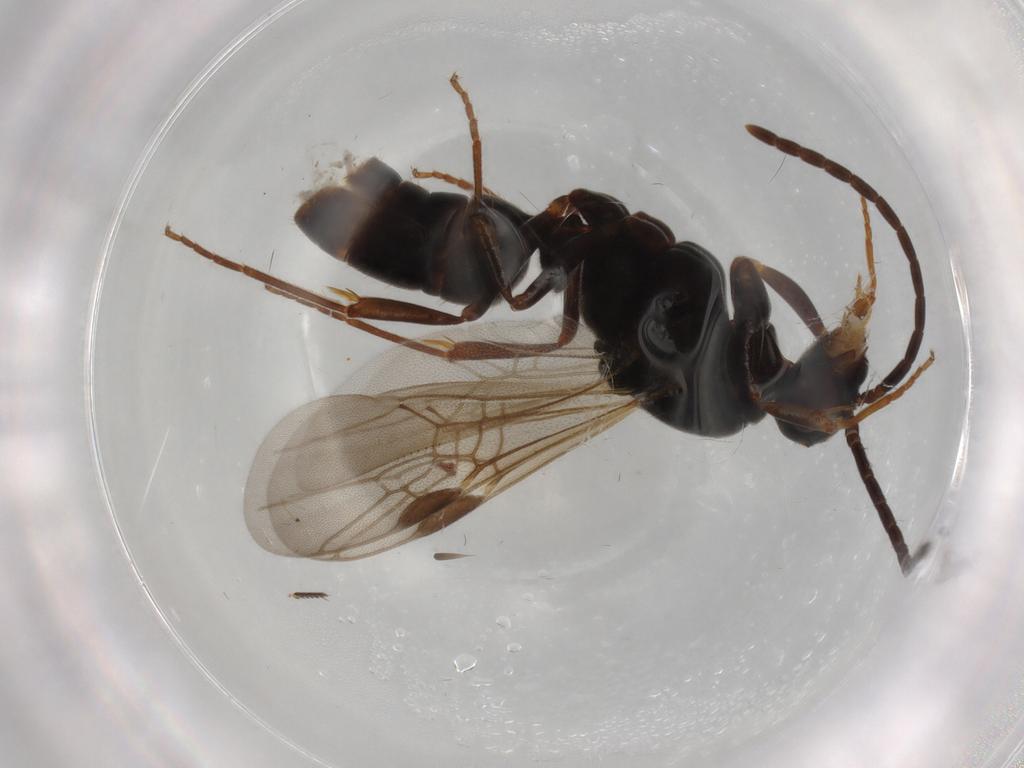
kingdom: Animalia
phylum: Arthropoda
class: Insecta
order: Hymenoptera
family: Formicidae
